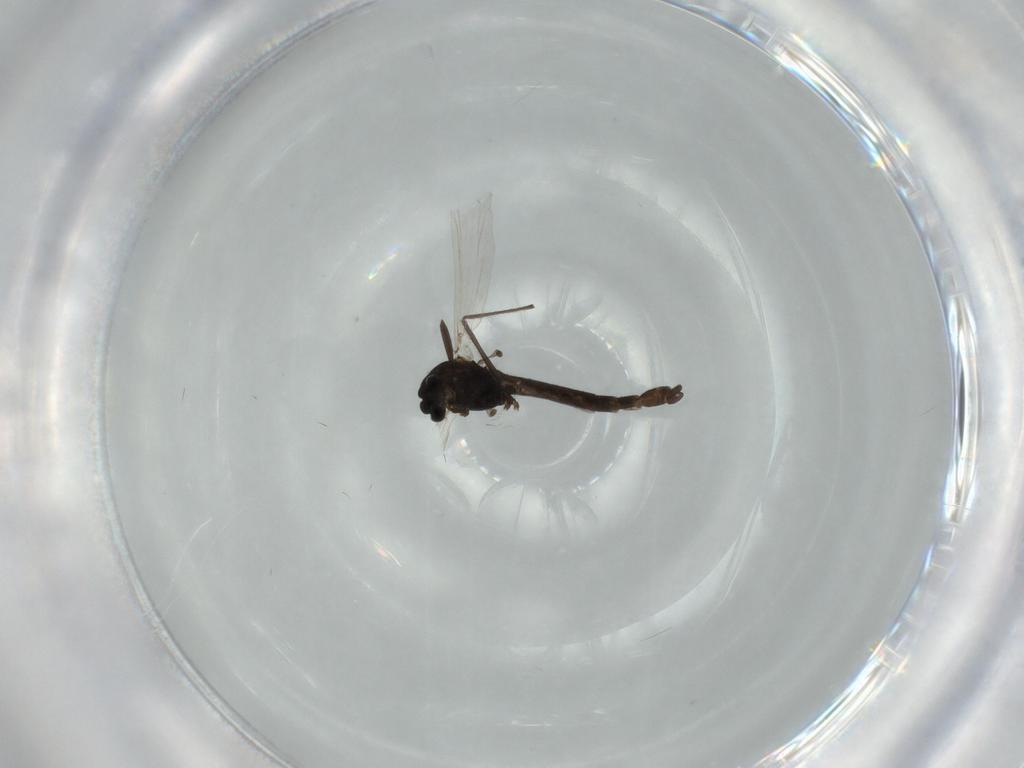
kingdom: Animalia
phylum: Arthropoda
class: Insecta
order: Diptera
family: Chironomidae
